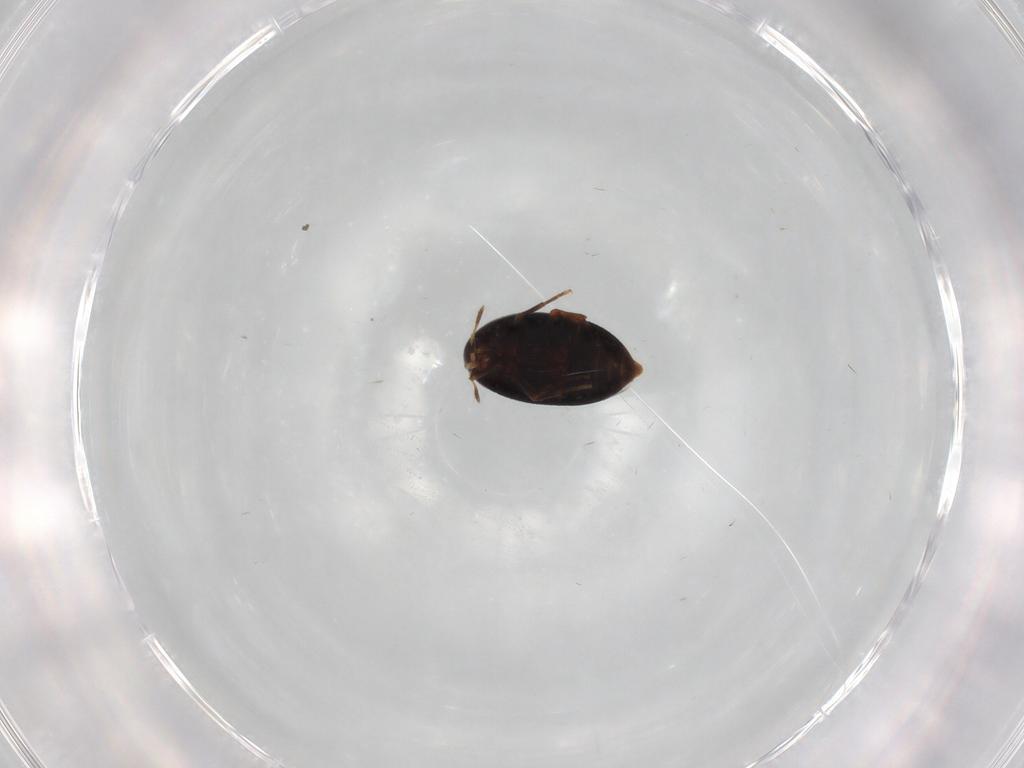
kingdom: Animalia
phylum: Arthropoda
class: Insecta
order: Coleoptera
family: Melandryidae
